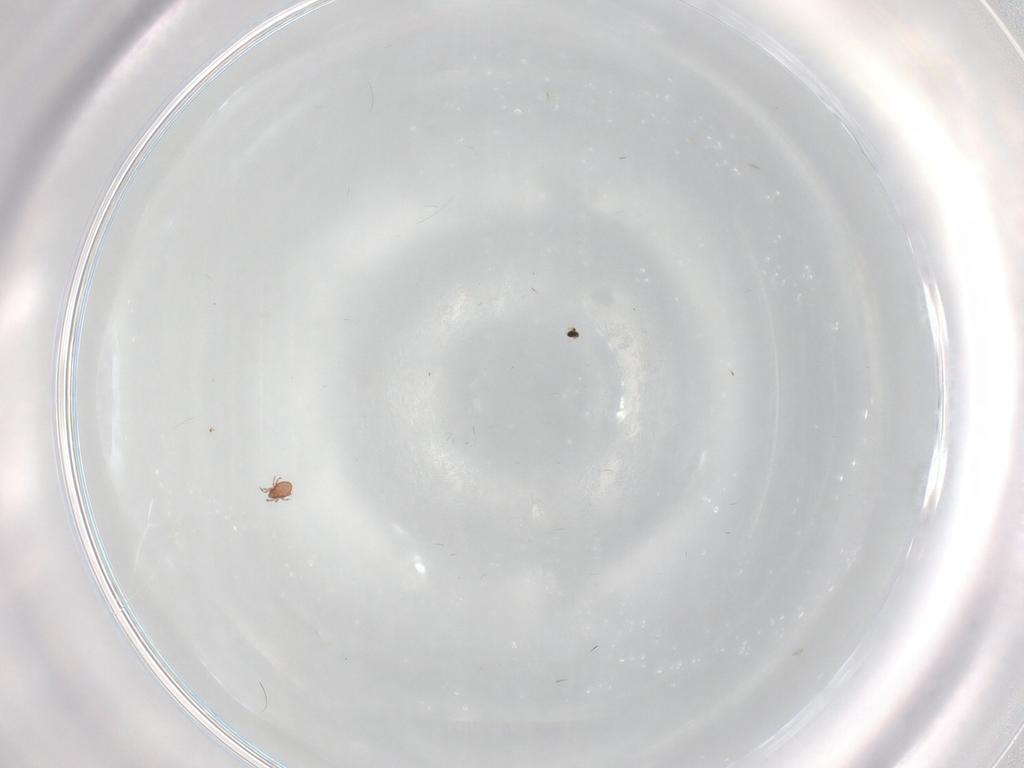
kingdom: Animalia
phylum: Arthropoda
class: Arachnida
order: Sarcoptiformes
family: Oppiidae
